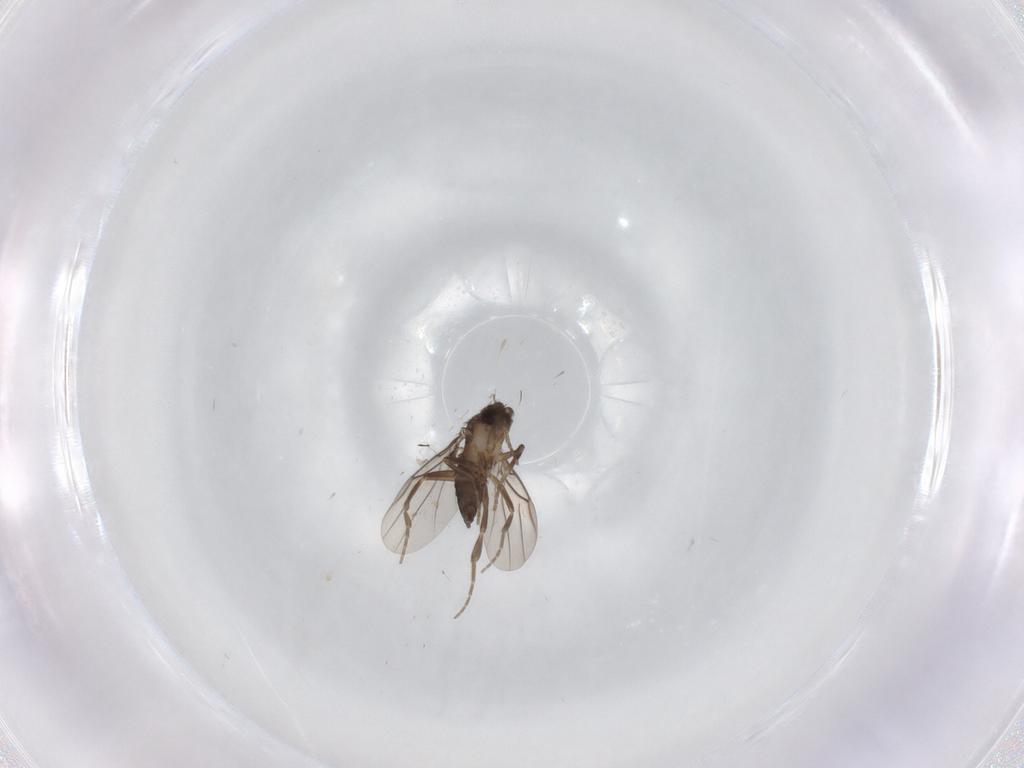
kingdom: Animalia
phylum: Arthropoda
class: Insecta
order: Diptera
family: Phoridae
